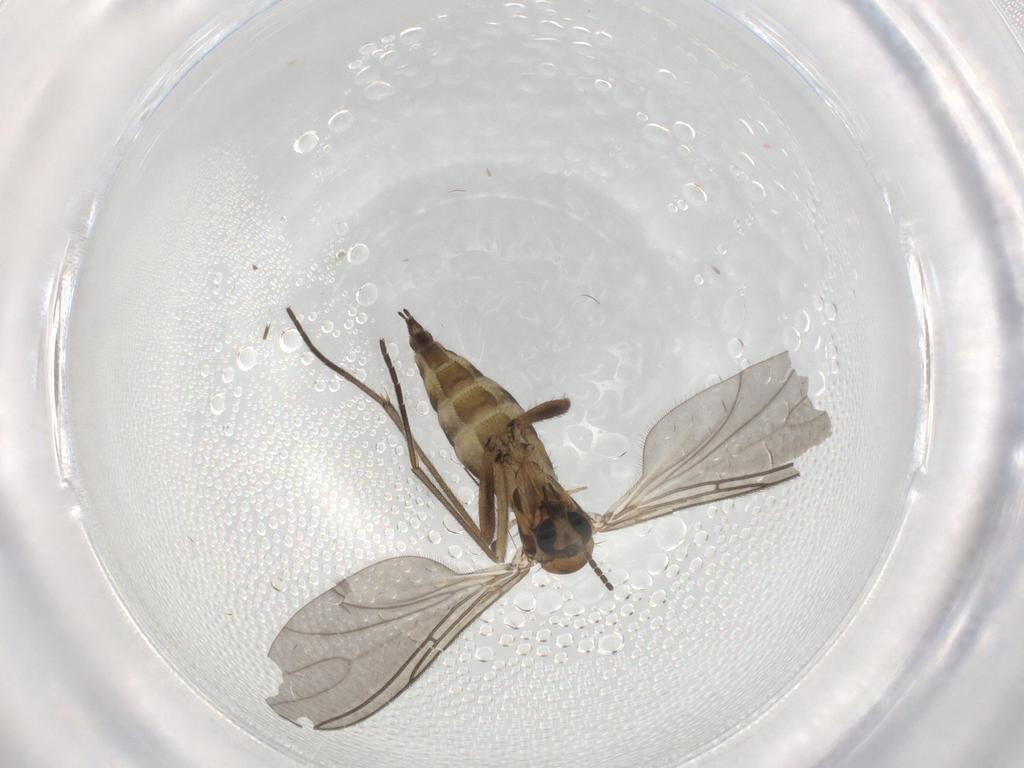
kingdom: Animalia
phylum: Arthropoda
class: Insecta
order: Diptera
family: Sciaridae
